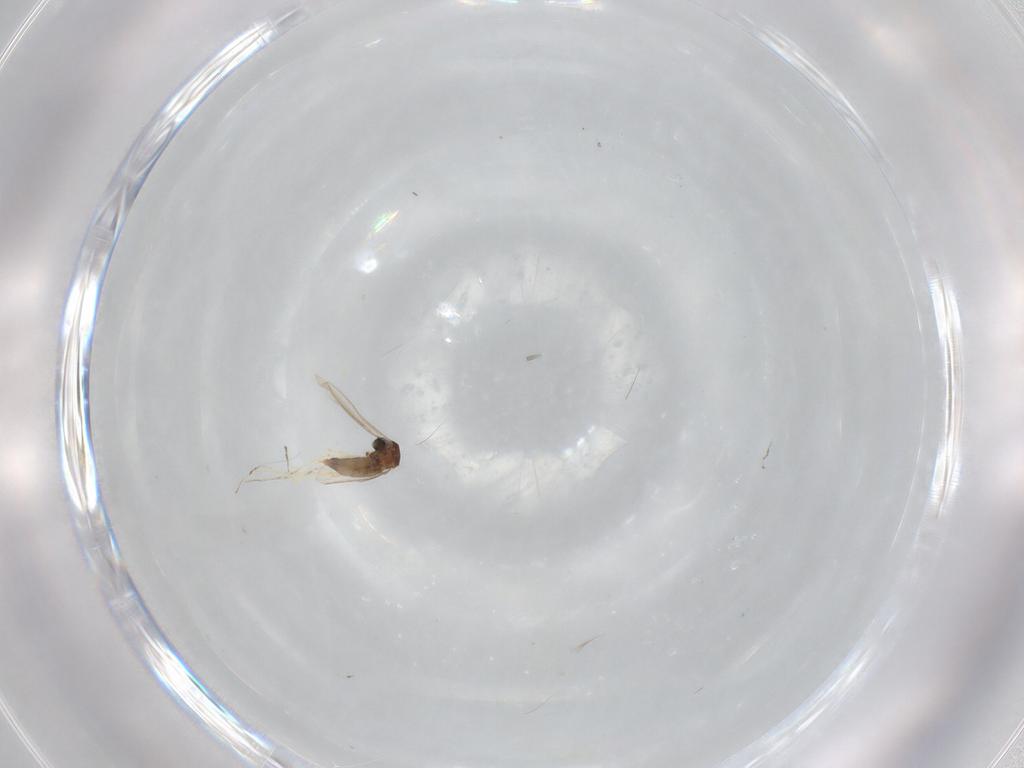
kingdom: Animalia
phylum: Arthropoda
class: Insecta
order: Diptera
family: Cecidomyiidae
